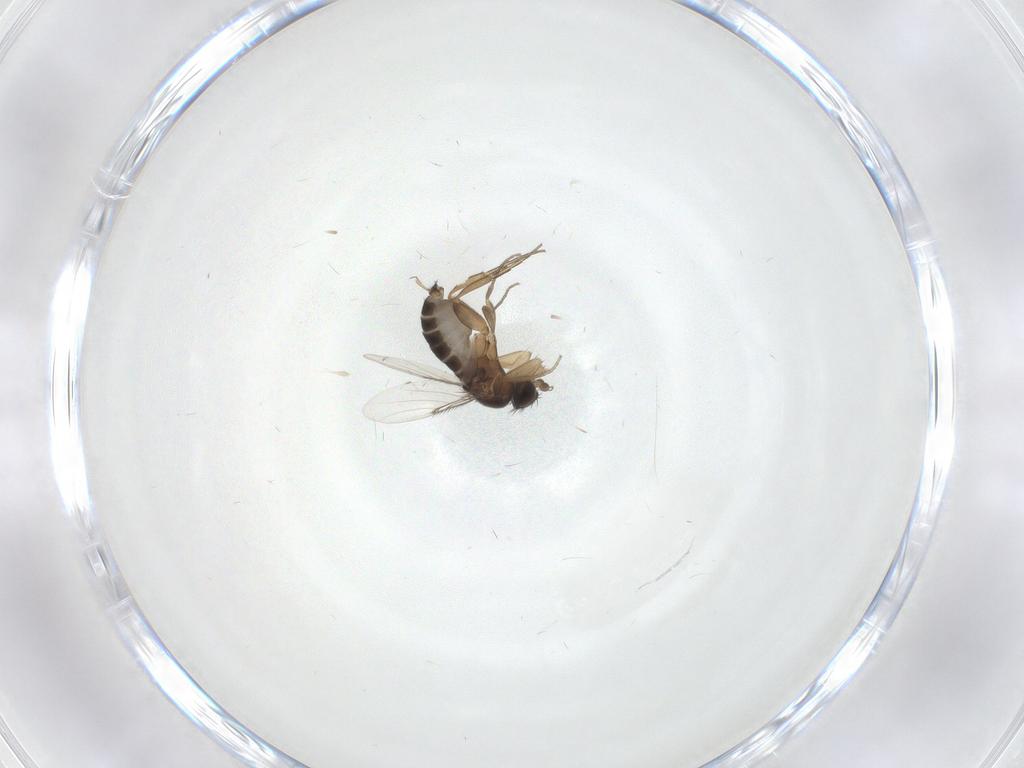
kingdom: Animalia
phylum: Arthropoda
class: Insecta
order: Diptera
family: Phoridae
